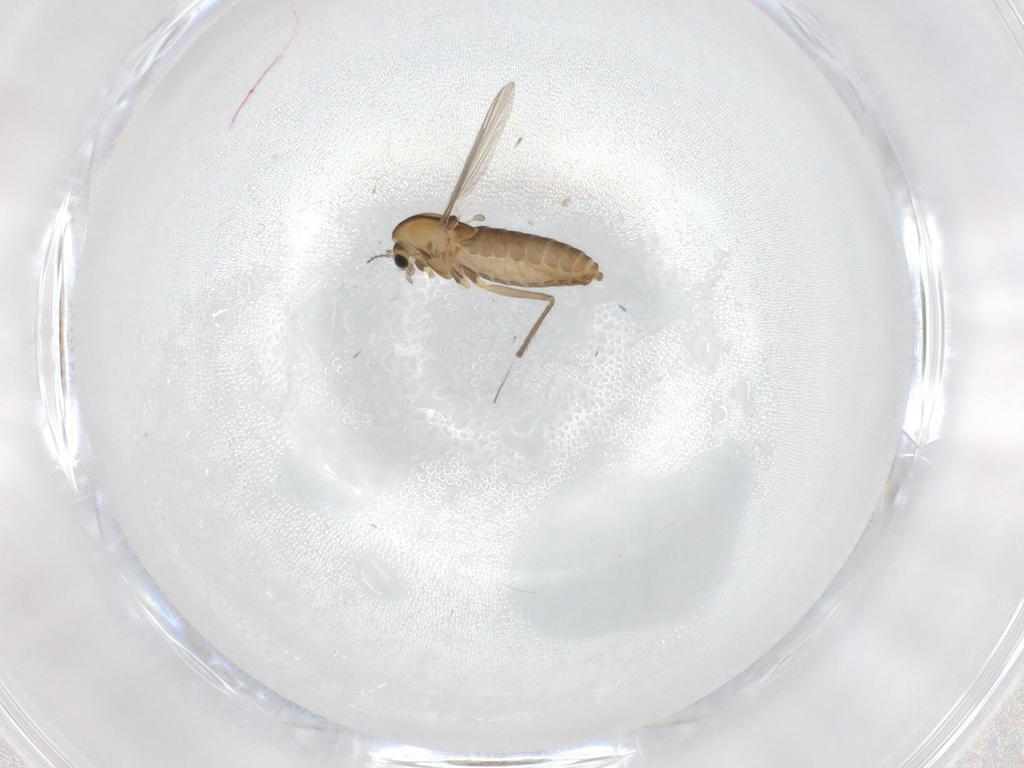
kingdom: Animalia
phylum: Arthropoda
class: Insecta
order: Diptera
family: Chironomidae
